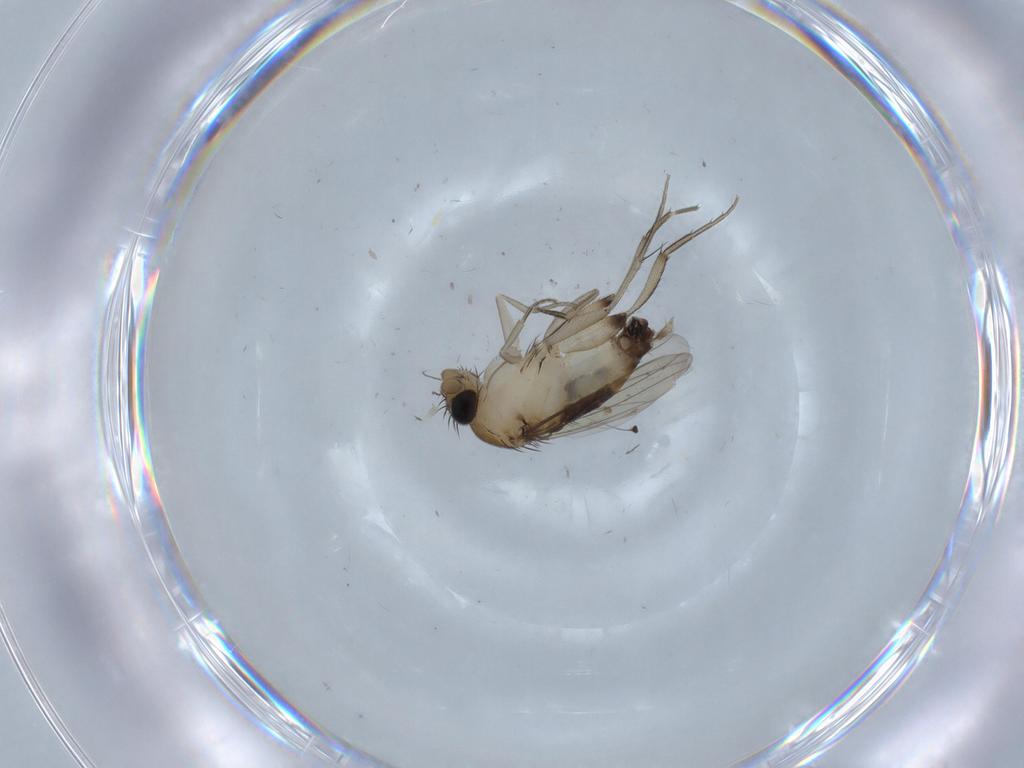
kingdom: Animalia
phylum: Arthropoda
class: Insecta
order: Diptera
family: Phoridae
